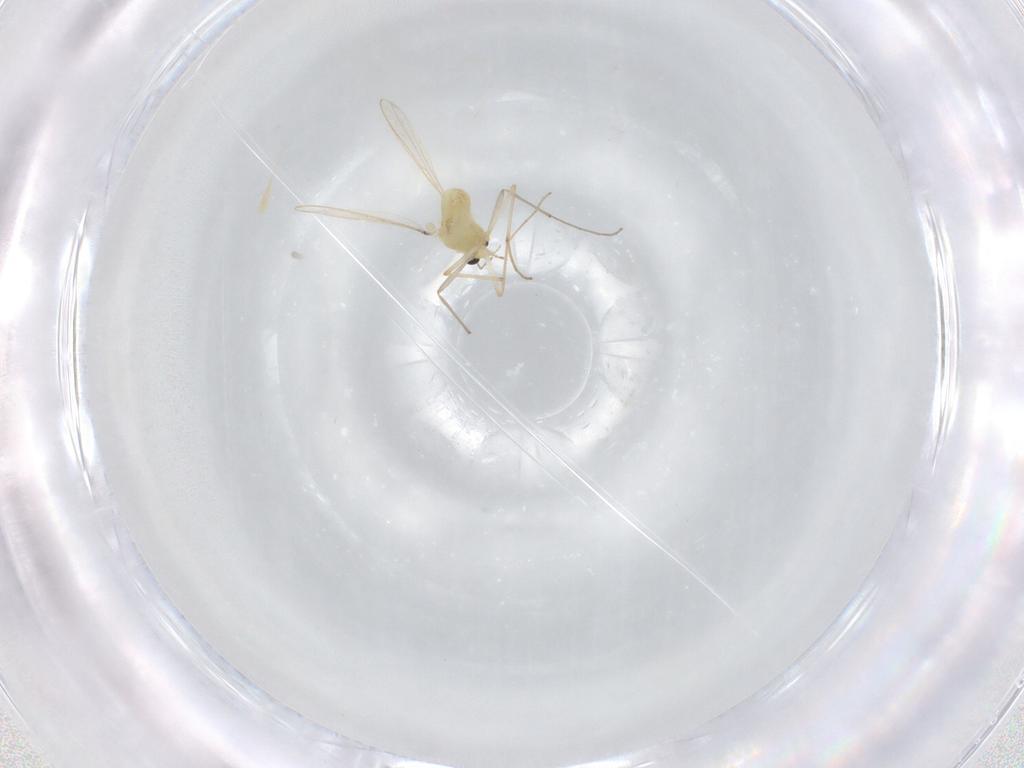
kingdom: Animalia
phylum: Arthropoda
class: Insecta
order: Diptera
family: Chironomidae
